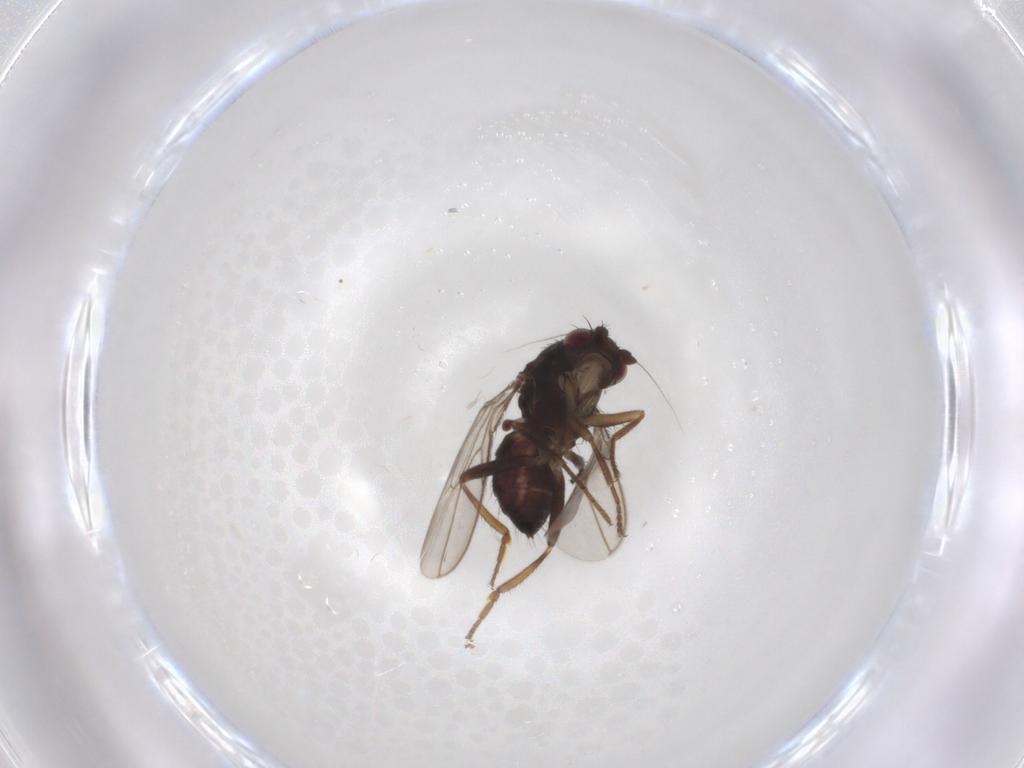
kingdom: Animalia
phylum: Arthropoda
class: Insecta
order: Diptera
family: Sphaeroceridae
